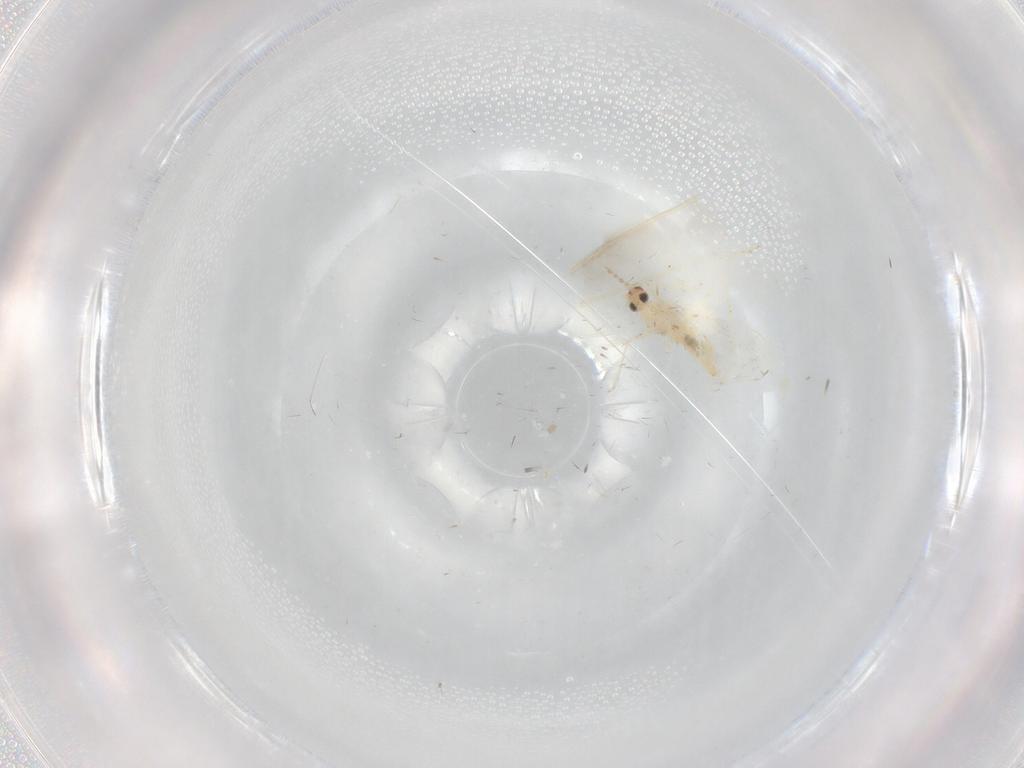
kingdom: Animalia
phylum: Arthropoda
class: Insecta
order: Diptera
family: Cecidomyiidae
